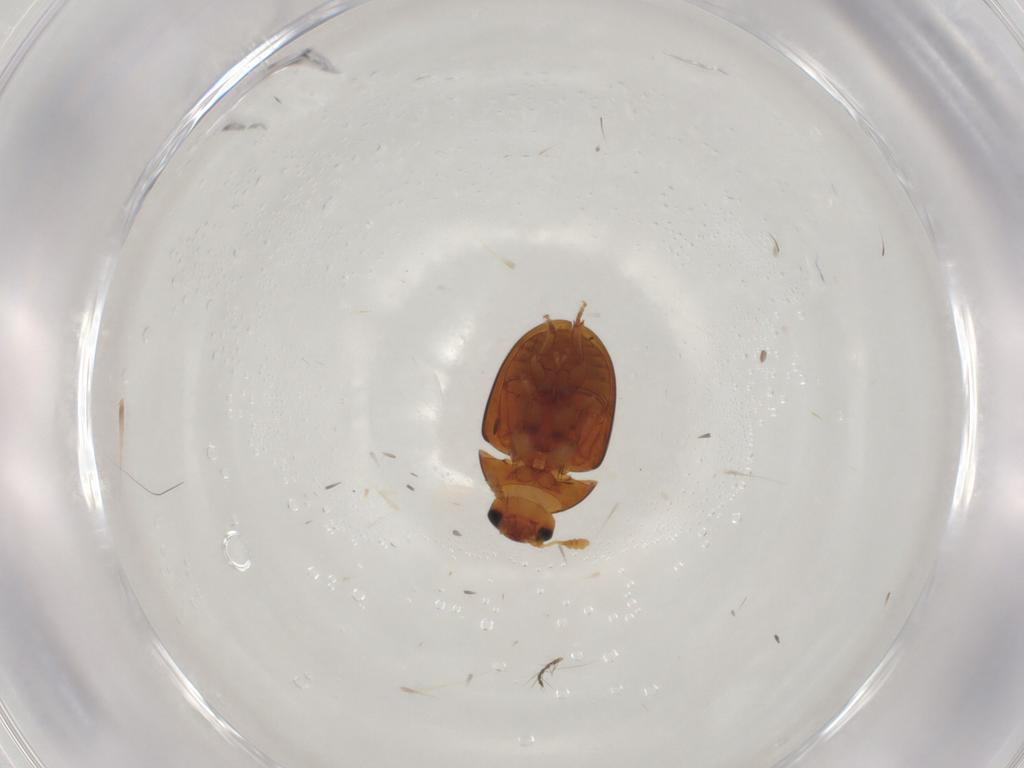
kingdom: Animalia
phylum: Arthropoda
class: Insecta
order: Coleoptera
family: Phalacridae
